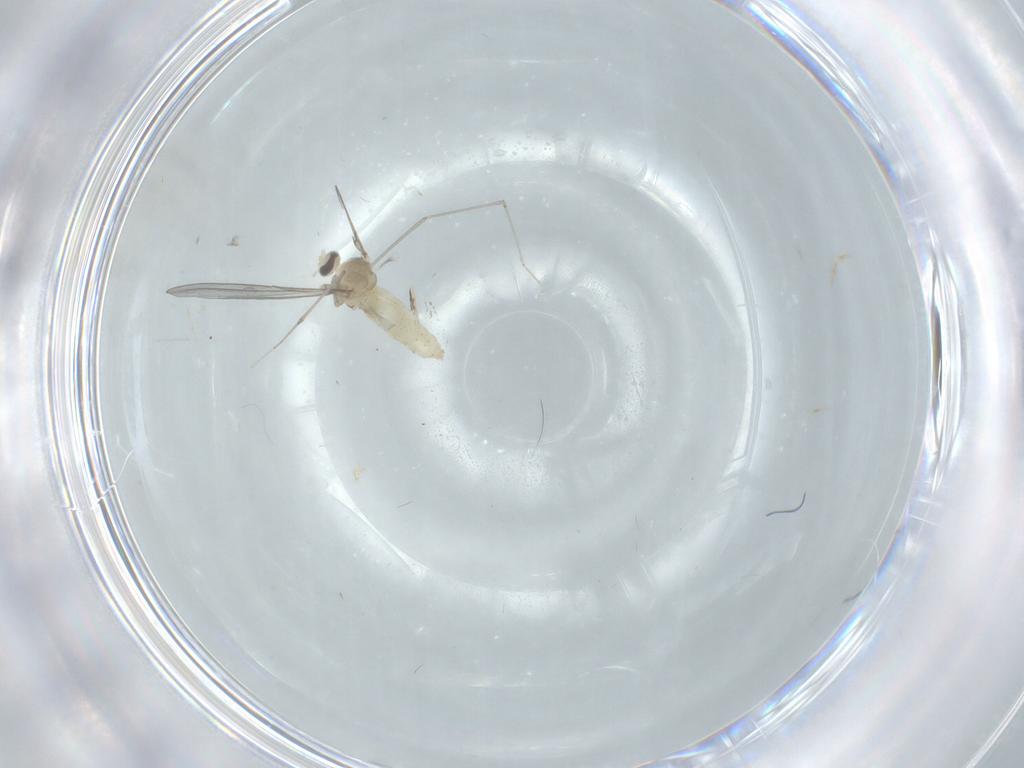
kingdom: Animalia
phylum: Arthropoda
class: Insecta
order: Diptera
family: Cecidomyiidae
